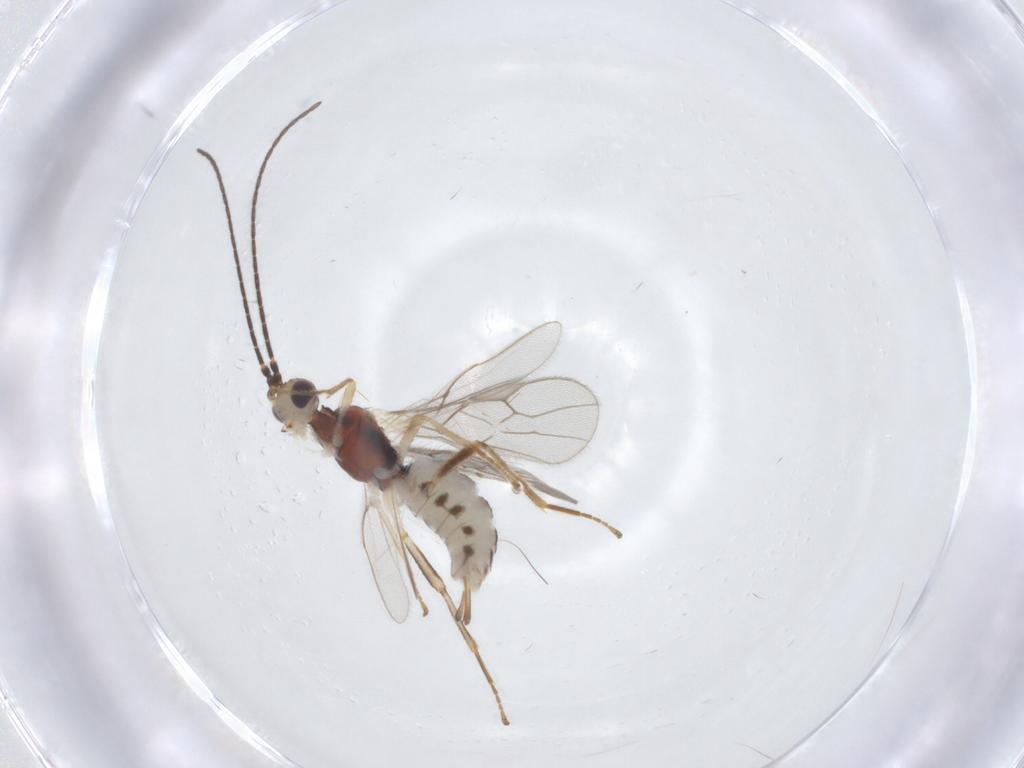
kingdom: Animalia
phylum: Arthropoda
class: Insecta
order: Hymenoptera
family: Braconidae
